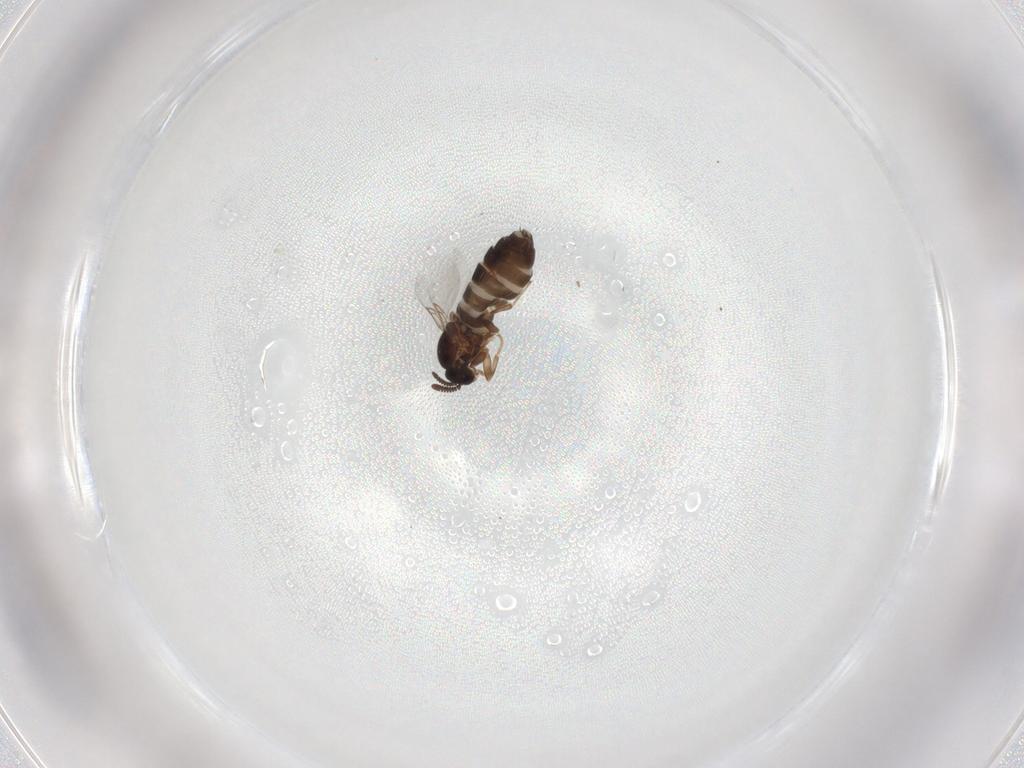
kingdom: Animalia
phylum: Arthropoda
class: Insecta
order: Diptera
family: Scatopsidae
